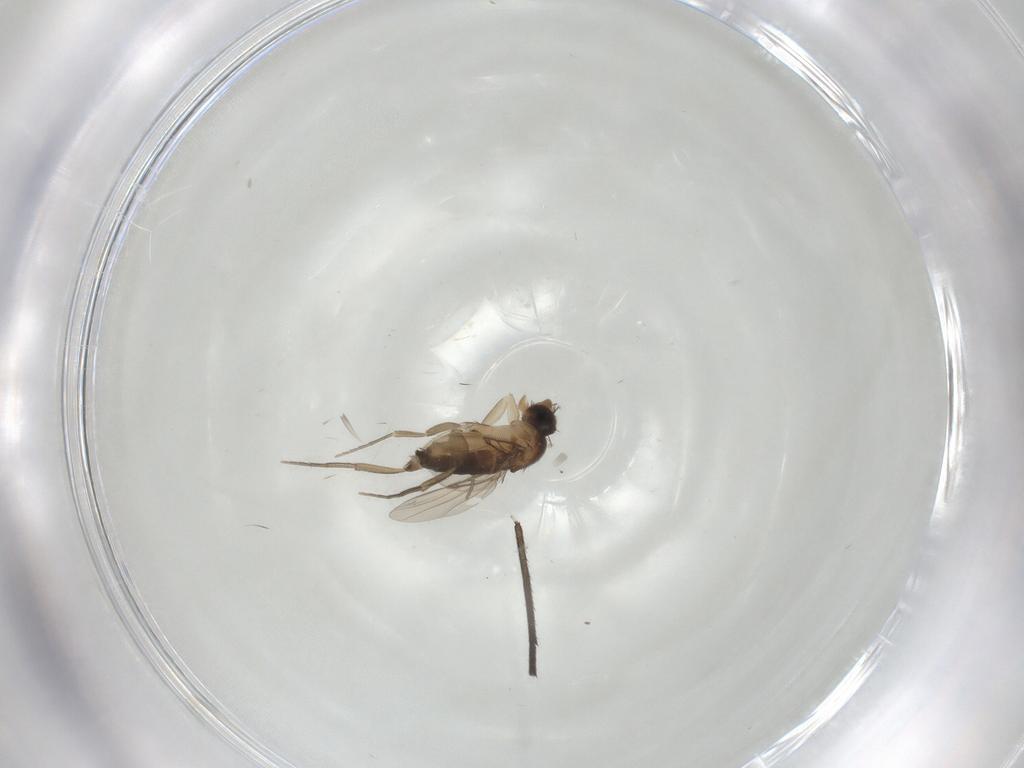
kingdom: Animalia
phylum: Arthropoda
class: Insecta
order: Diptera
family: Phoridae
